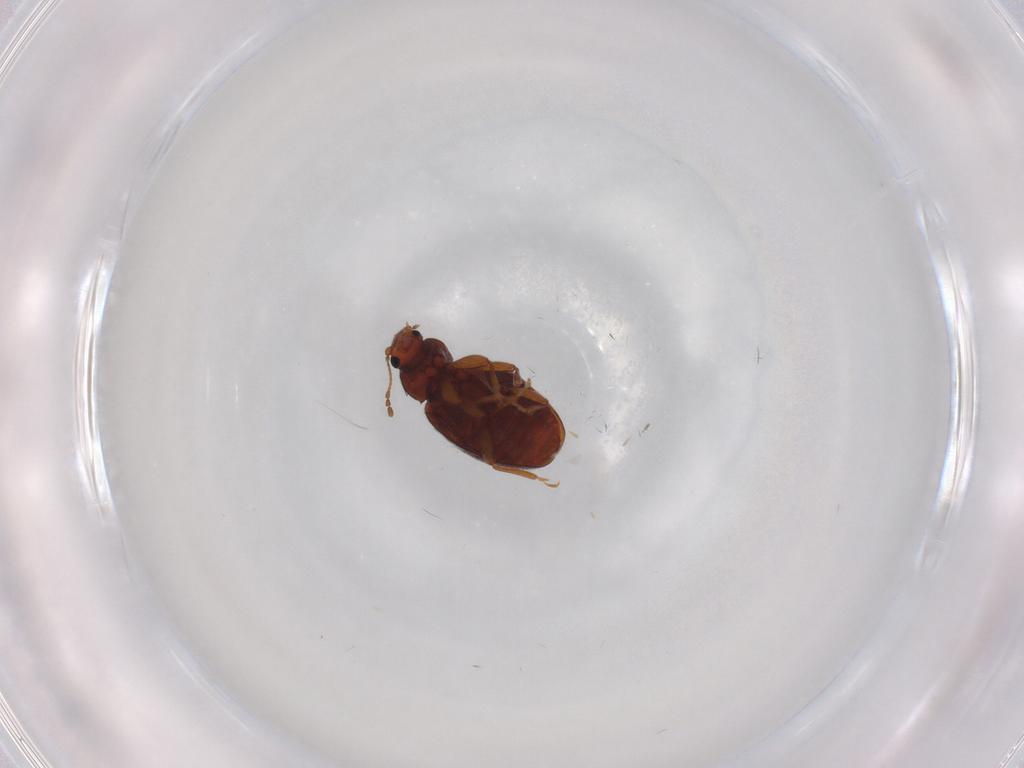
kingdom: Animalia
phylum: Arthropoda
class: Insecta
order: Coleoptera
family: Latridiidae
